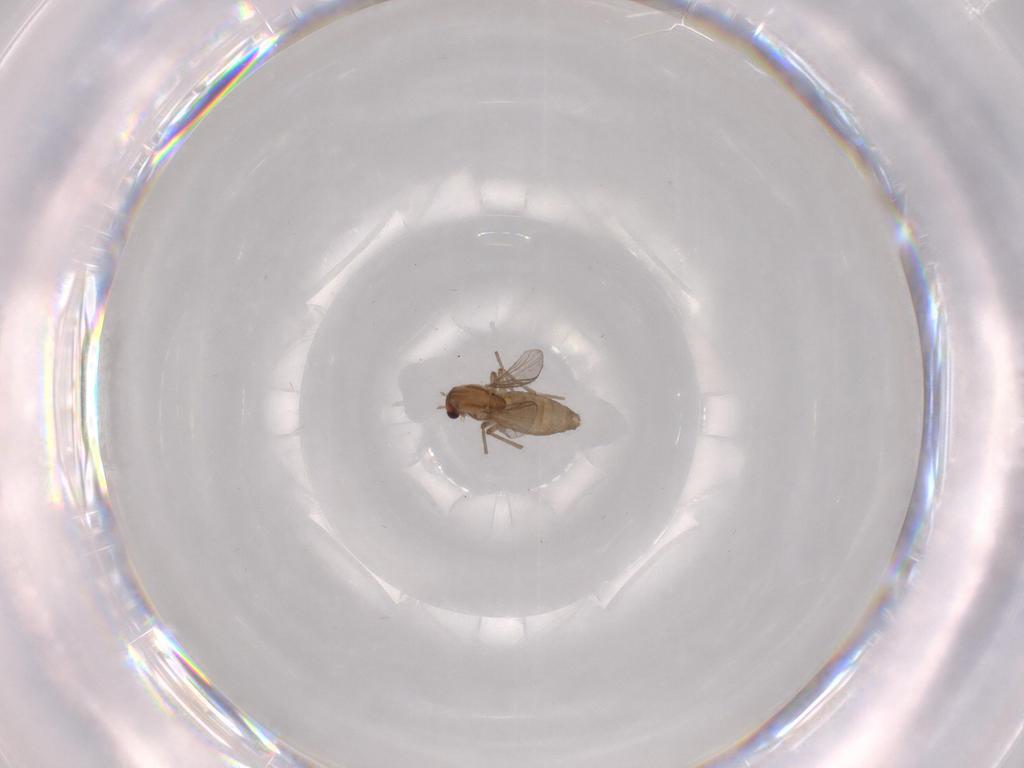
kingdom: Animalia
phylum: Arthropoda
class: Insecta
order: Diptera
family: Chironomidae
